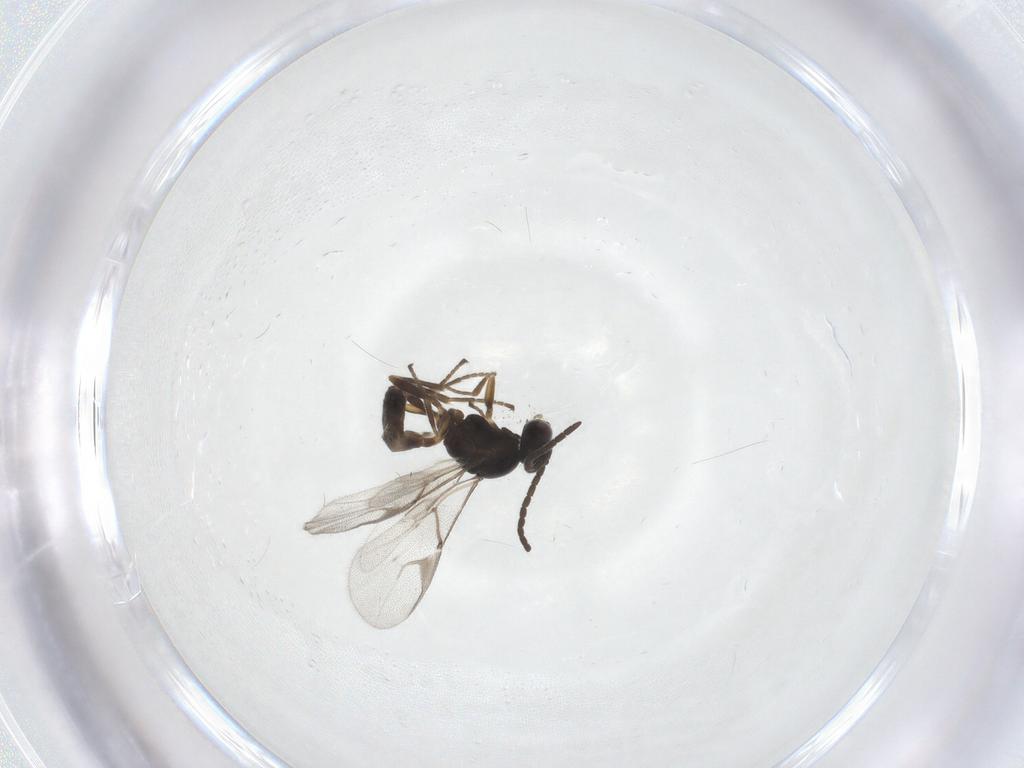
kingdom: Animalia
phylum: Arthropoda
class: Insecta
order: Hymenoptera
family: Braconidae
